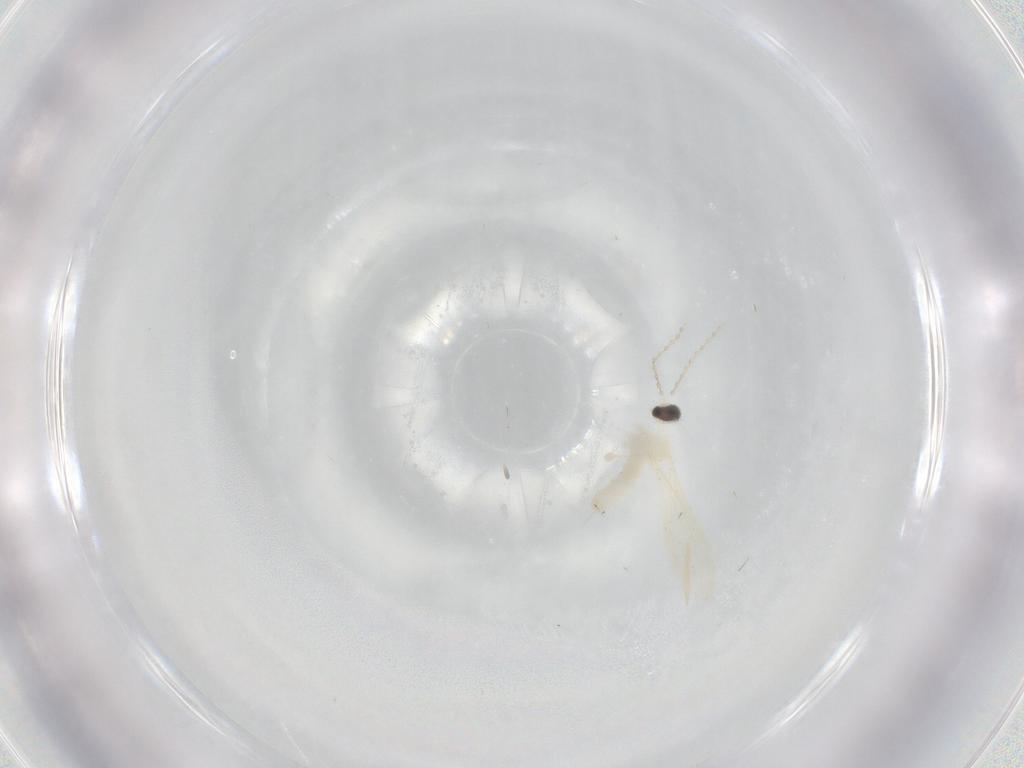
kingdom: Animalia
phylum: Arthropoda
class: Insecta
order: Diptera
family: Cecidomyiidae
